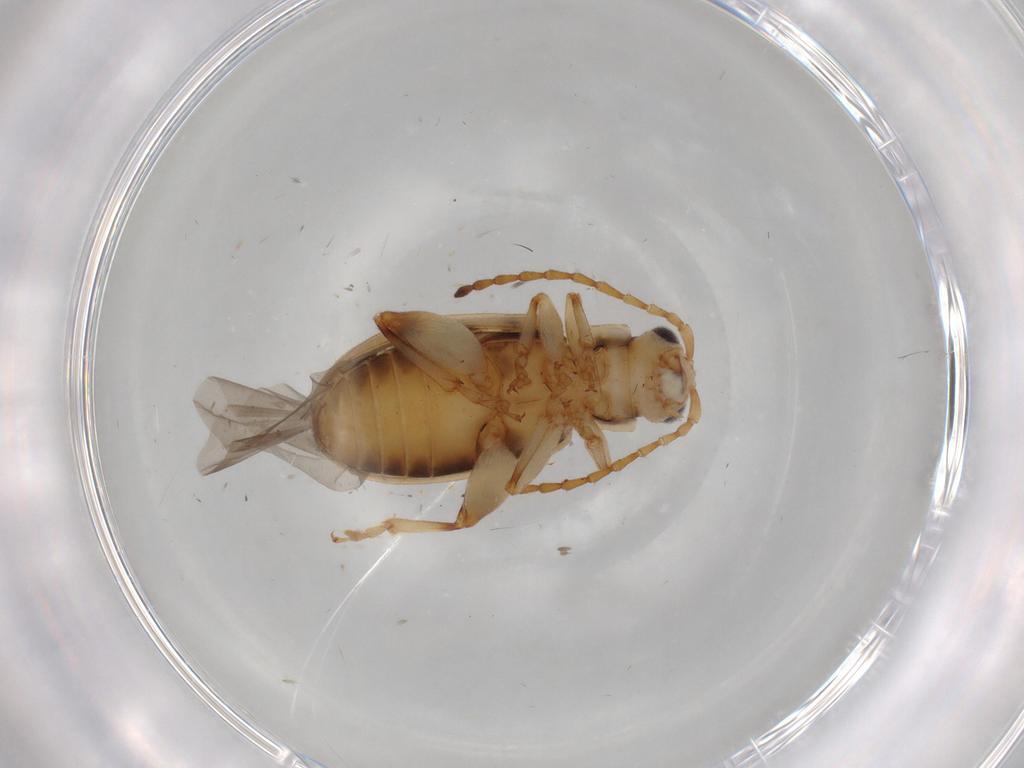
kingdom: Animalia
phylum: Arthropoda
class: Insecta
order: Coleoptera
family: Chrysomelidae
